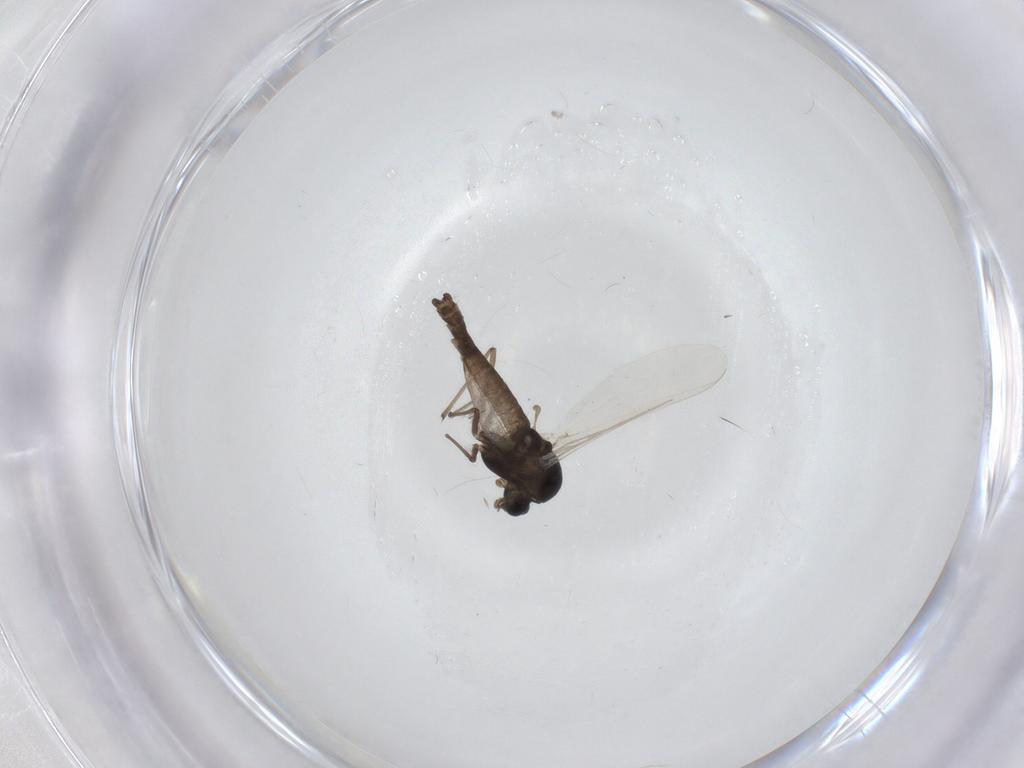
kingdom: Animalia
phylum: Arthropoda
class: Insecta
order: Diptera
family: Chironomidae
